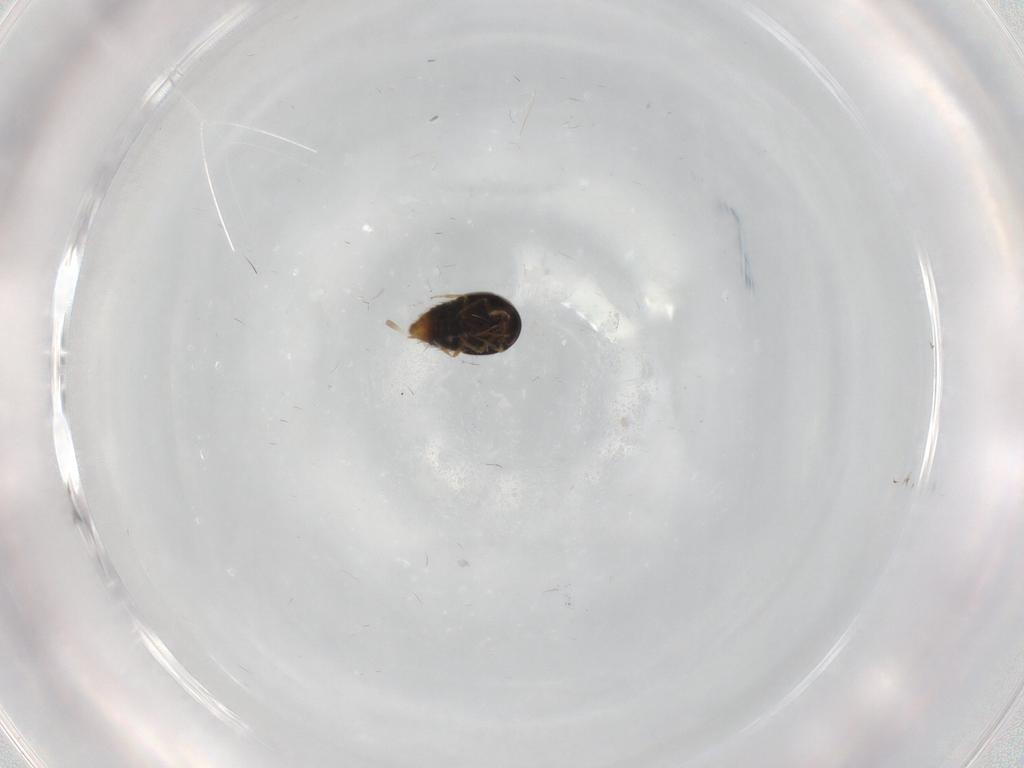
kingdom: Animalia
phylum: Arthropoda
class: Insecta
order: Coleoptera
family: Staphylinidae
